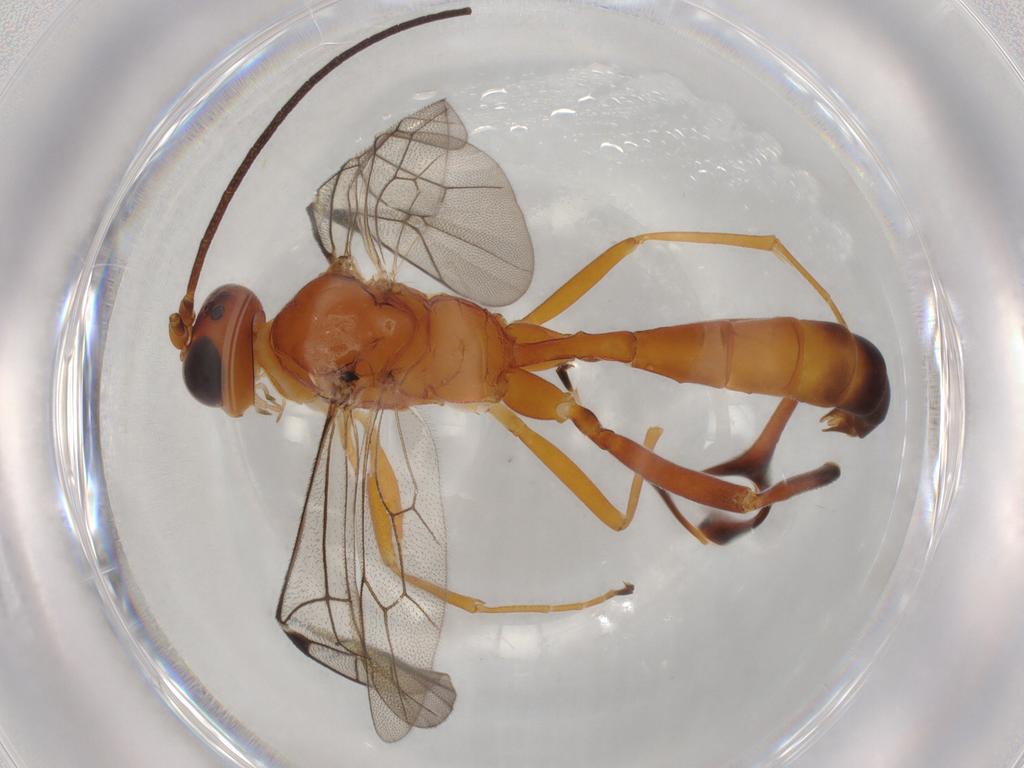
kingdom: Animalia
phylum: Arthropoda
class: Insecta
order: Hymenoptera
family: Ichneumonidae
